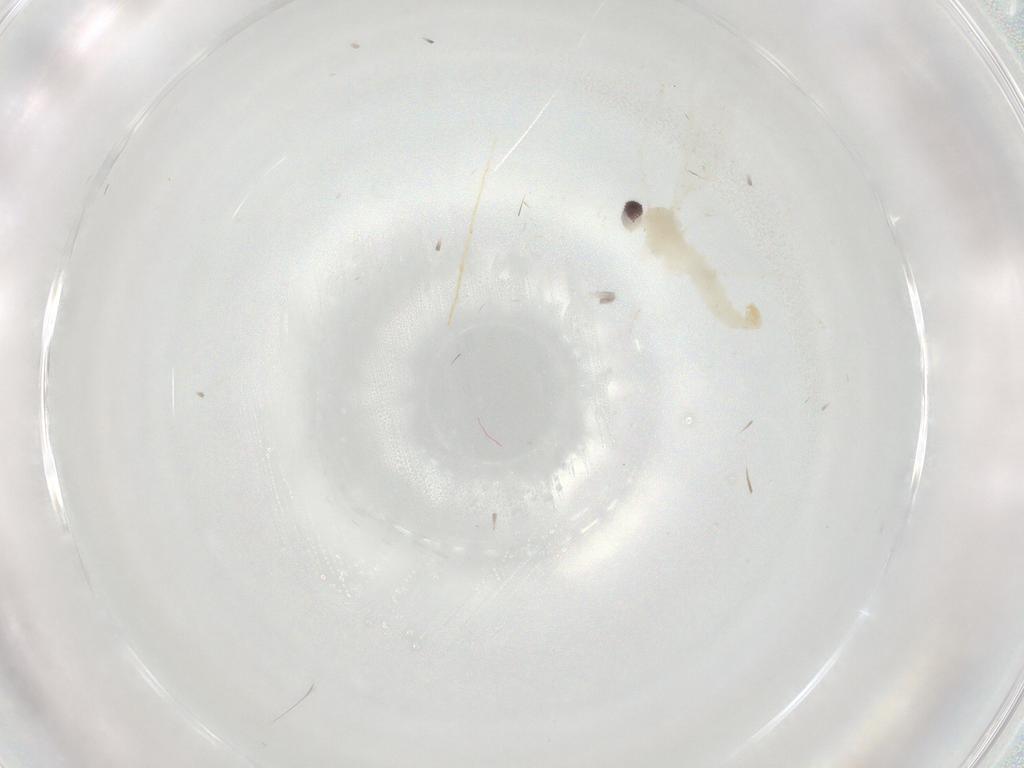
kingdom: Animalia
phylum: Arthropoda
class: Insecta
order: Diptera
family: Cecidomyiidae
